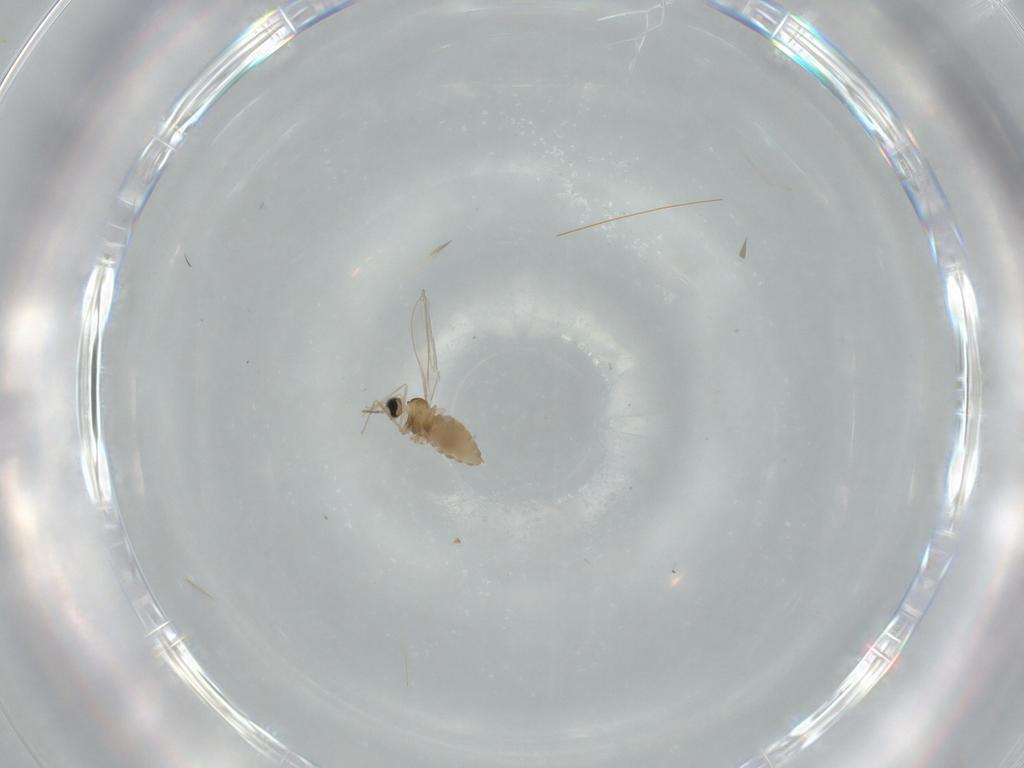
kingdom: Animalia
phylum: Arthropoda
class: Insecta
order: Diptera
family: Cecidomyiidae
